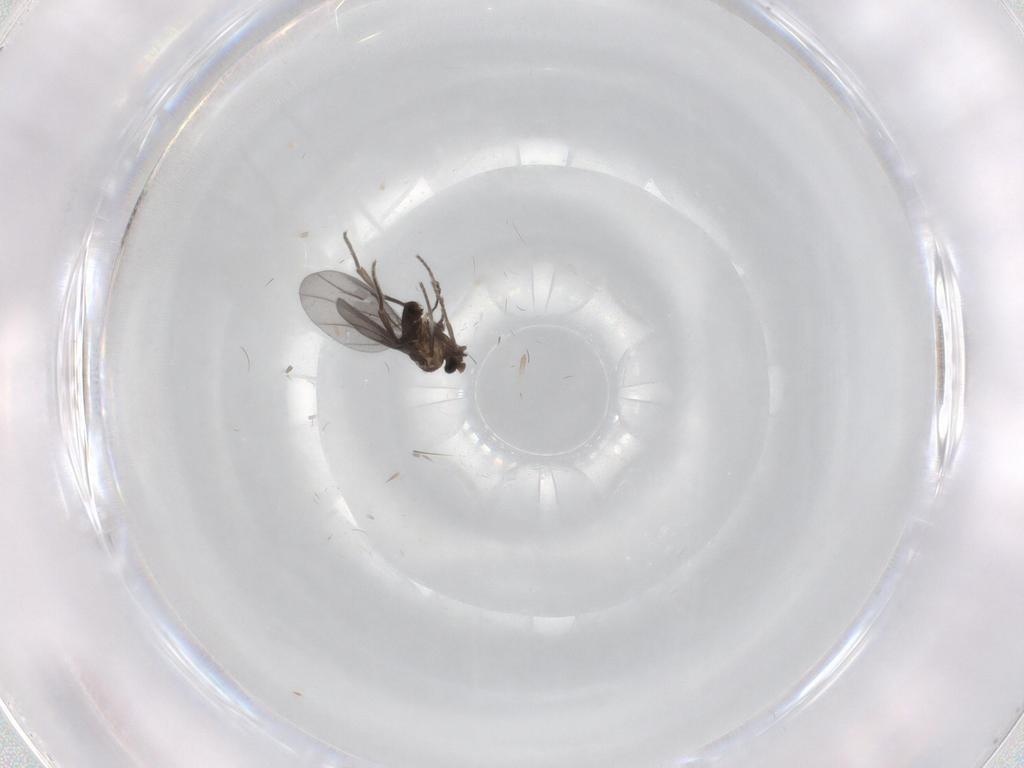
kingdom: Animalia
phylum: Arthropoda
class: Insecta
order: Diptera
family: Phoridae
